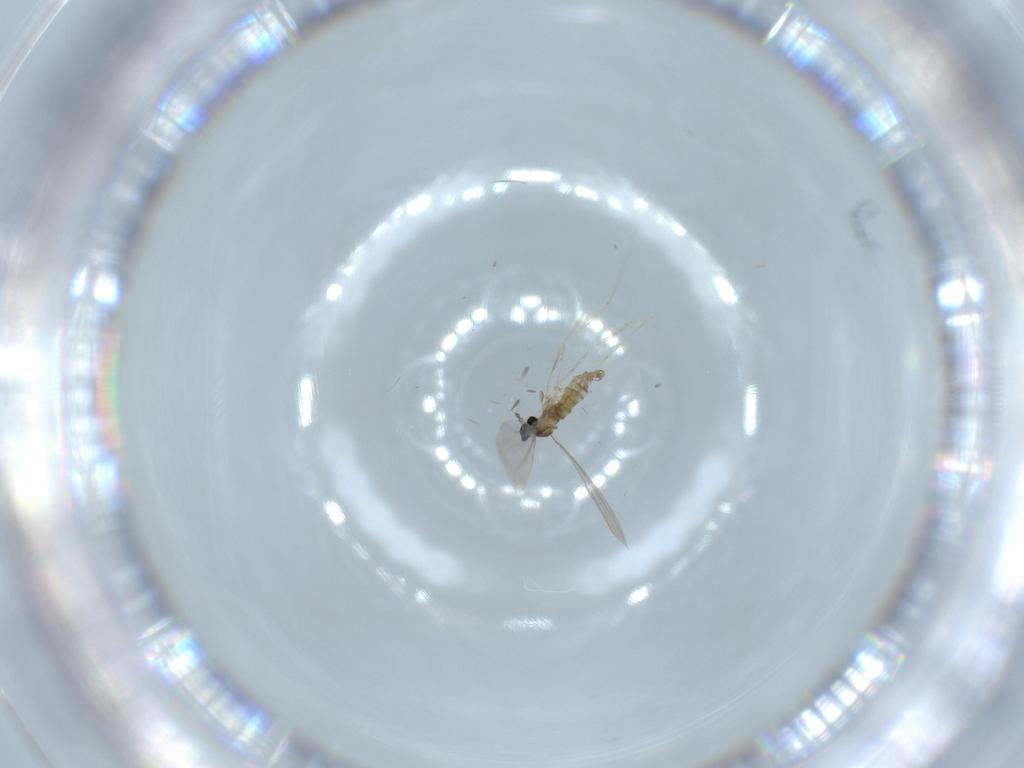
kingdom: Animalia
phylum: Arthropoda
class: Insecta
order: Diptera
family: Cecidomyiidae
